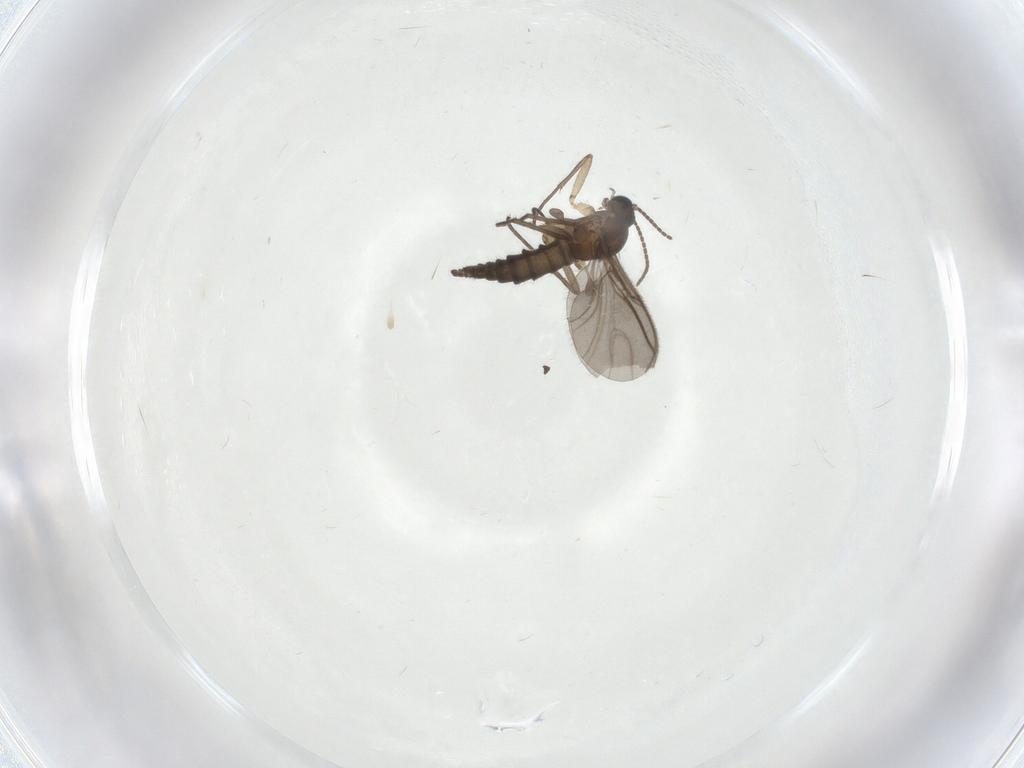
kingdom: Animalia
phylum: Arthropoda
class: Insecta
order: Diptera
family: Sciaridae
